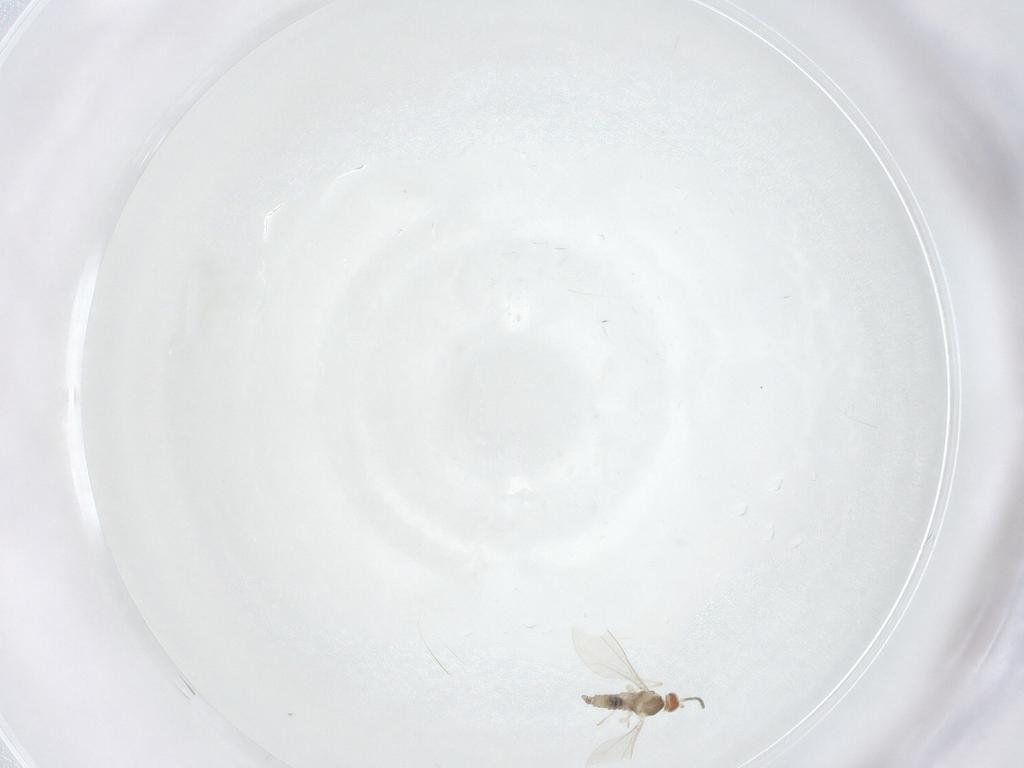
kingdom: Animalia
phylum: Arthropoda
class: Insecta
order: Diptera
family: Cecidomyiidae
